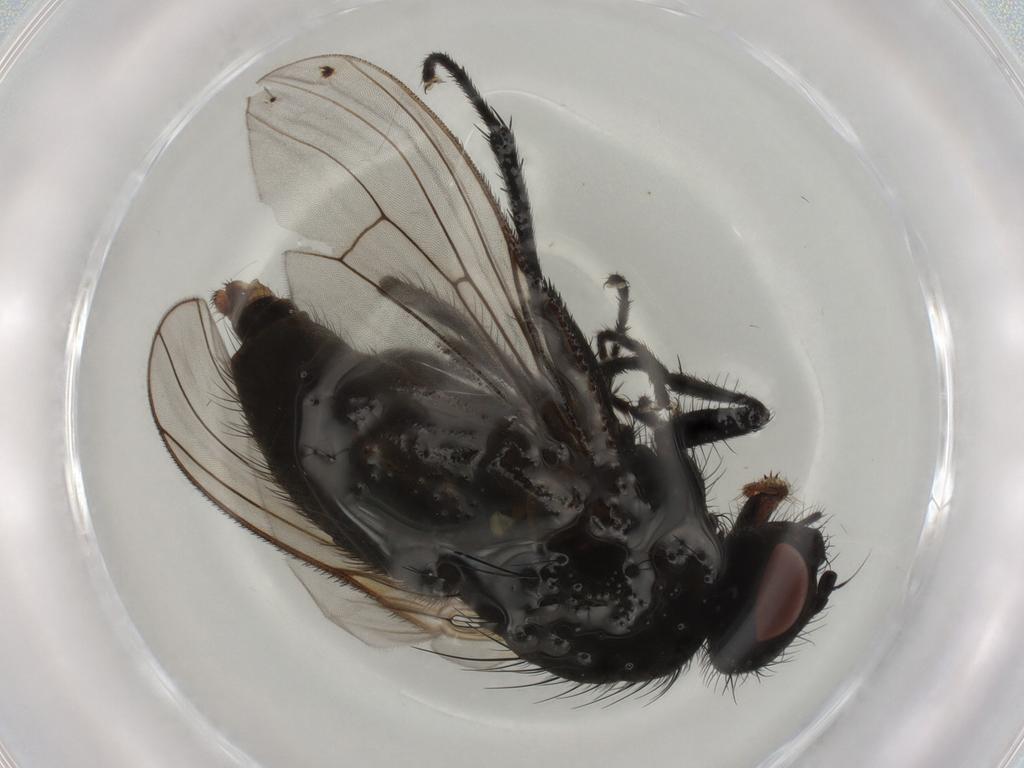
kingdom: Animalia
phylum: Arthropoda
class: Insecta
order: Diptera
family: Muscidae
